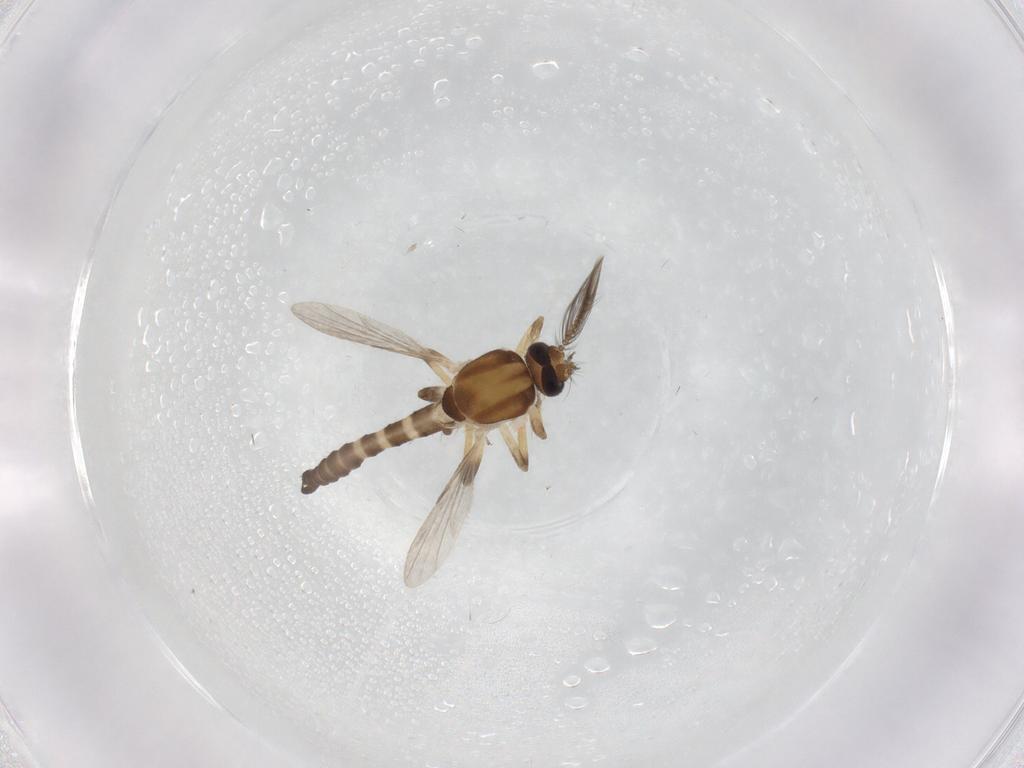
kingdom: Animalia
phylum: Arthropoda
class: Insecta
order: Diptera
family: Ceratopogonidae
